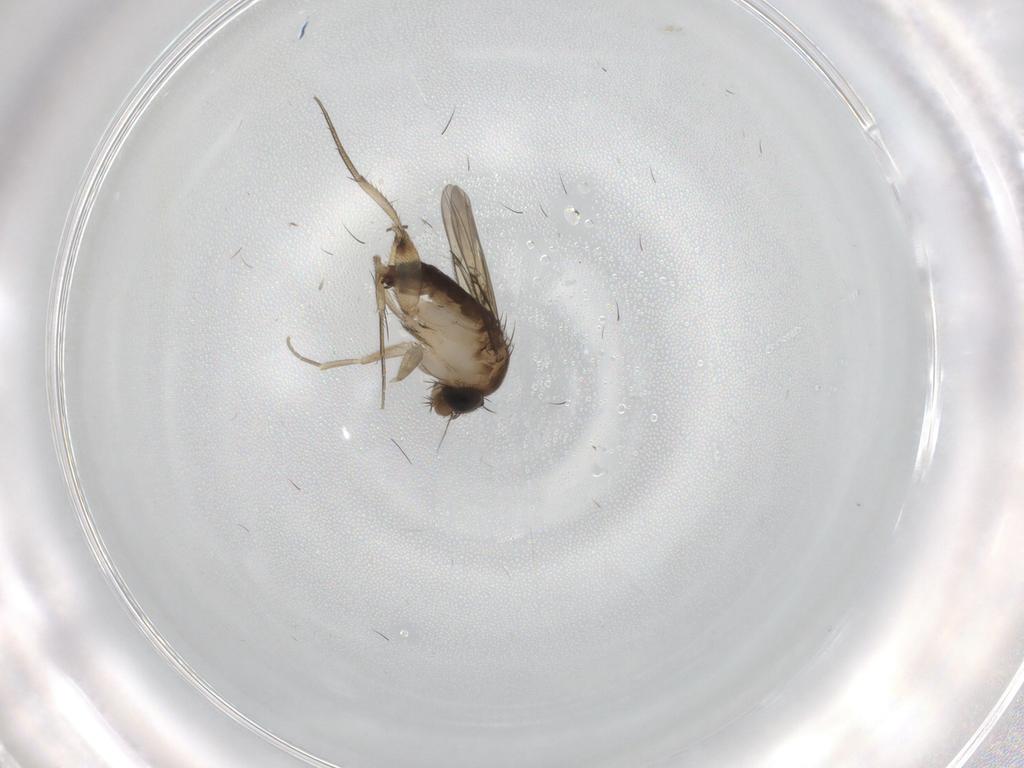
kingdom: Animalia
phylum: Arthropoda
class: Insecta
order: Diptera
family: Phoridae
